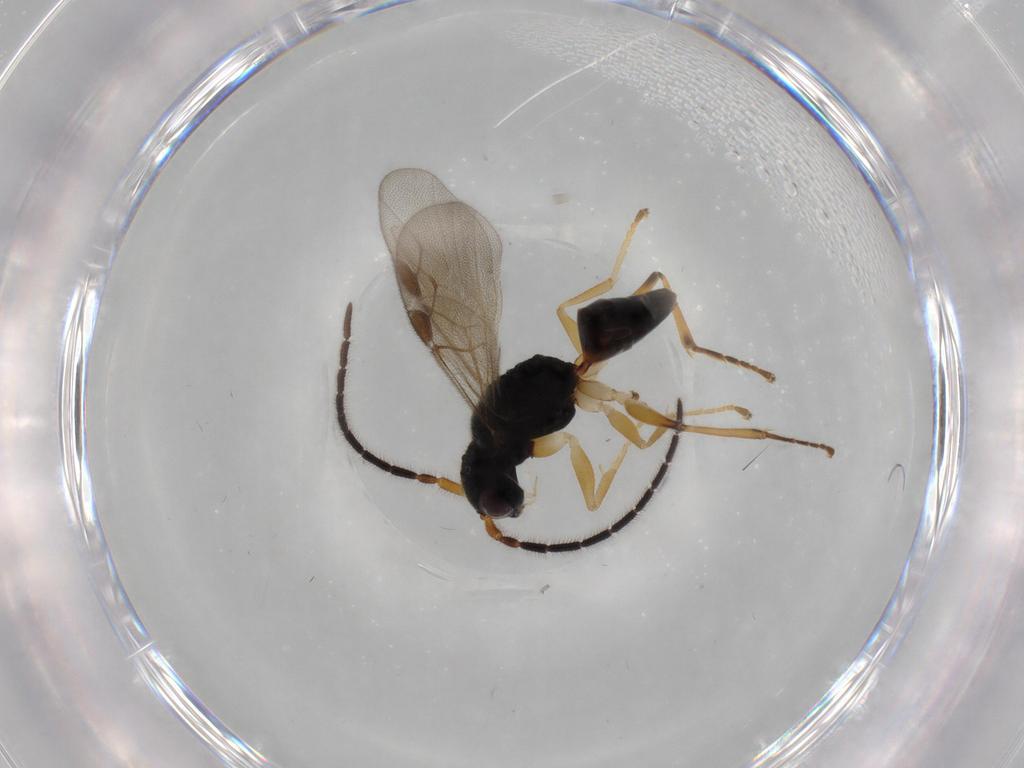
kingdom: Animalia
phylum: Arthropoda
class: Insecta
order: Hymenoptera
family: Dryinidae
